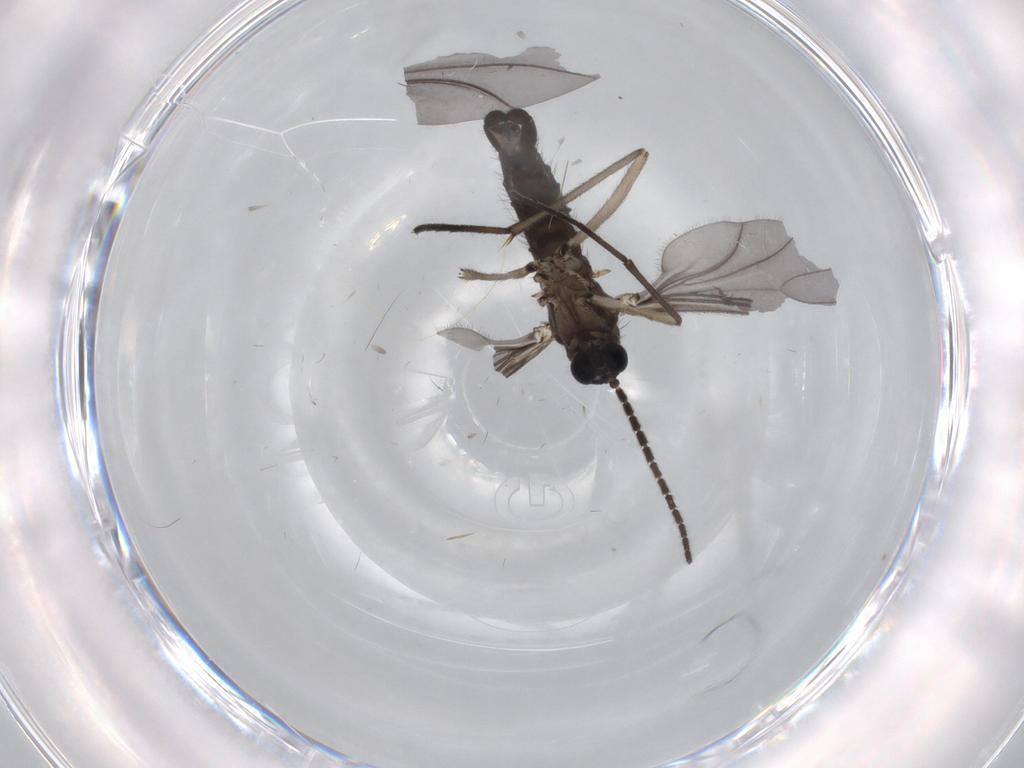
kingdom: Animalia
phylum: Arthropoda
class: Insecta
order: Diptera
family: Sciaridae
